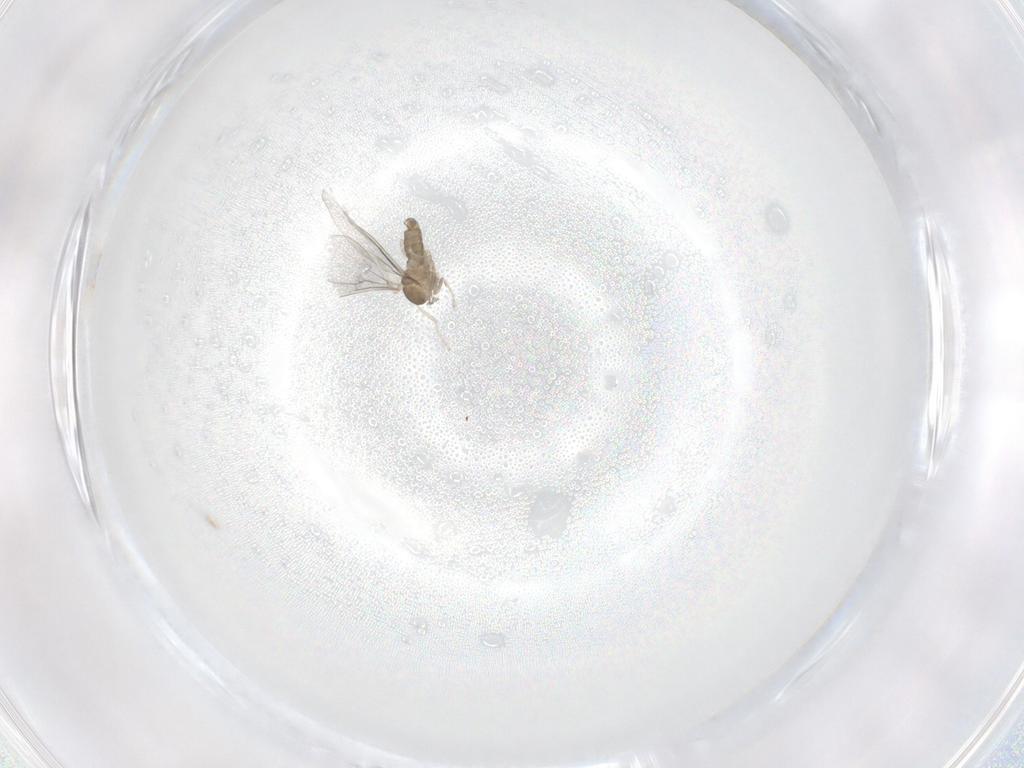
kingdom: Animalia
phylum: Arthropoda
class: Insecta
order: Diptera
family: Cecidomyiidae
